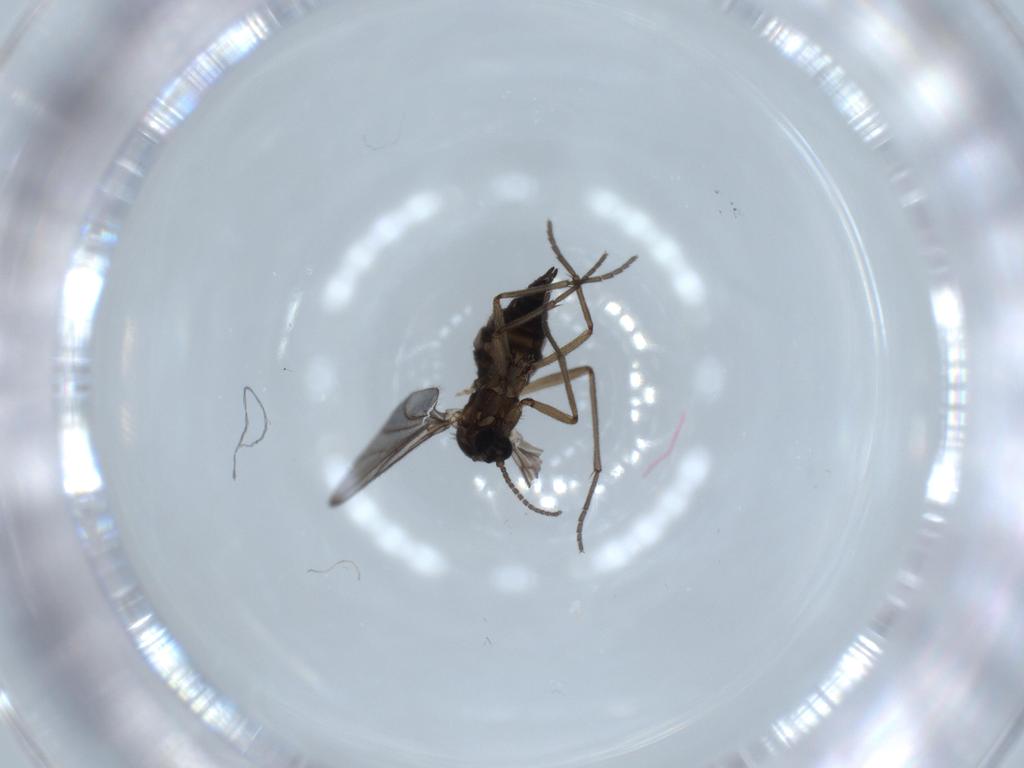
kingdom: Animalia
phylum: Arthropoda
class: Insecta
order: Diptera
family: Sciaridae
